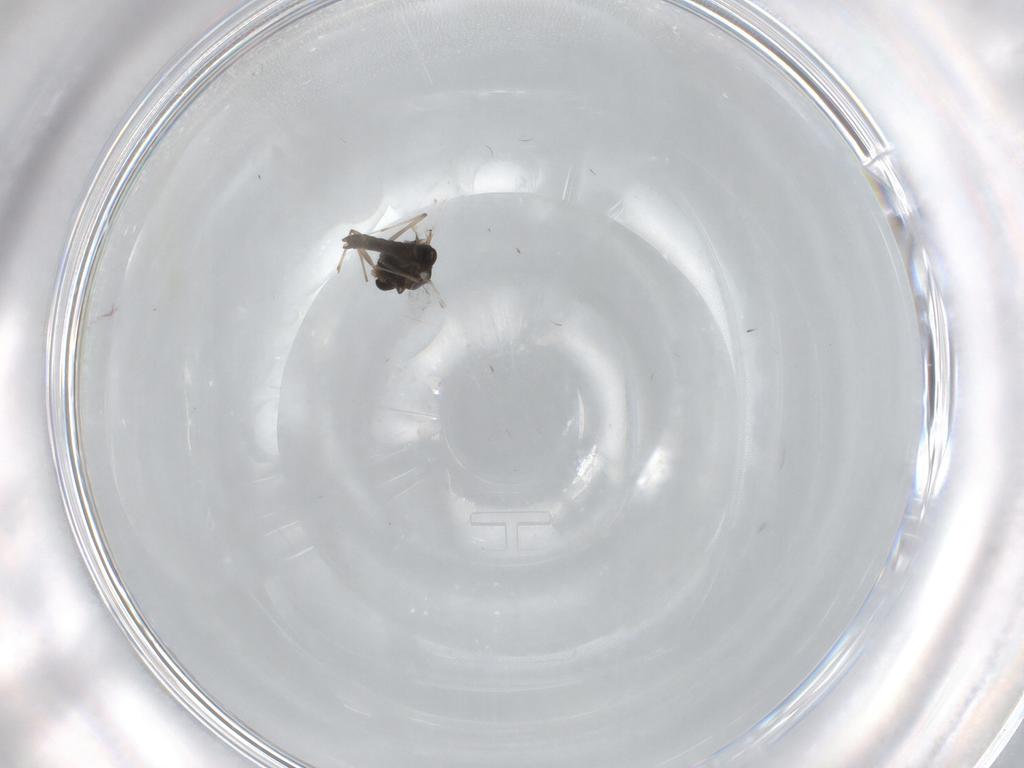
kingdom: Animalia
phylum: Arthropoda
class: Insecta
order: Diptera
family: Chironomidae
